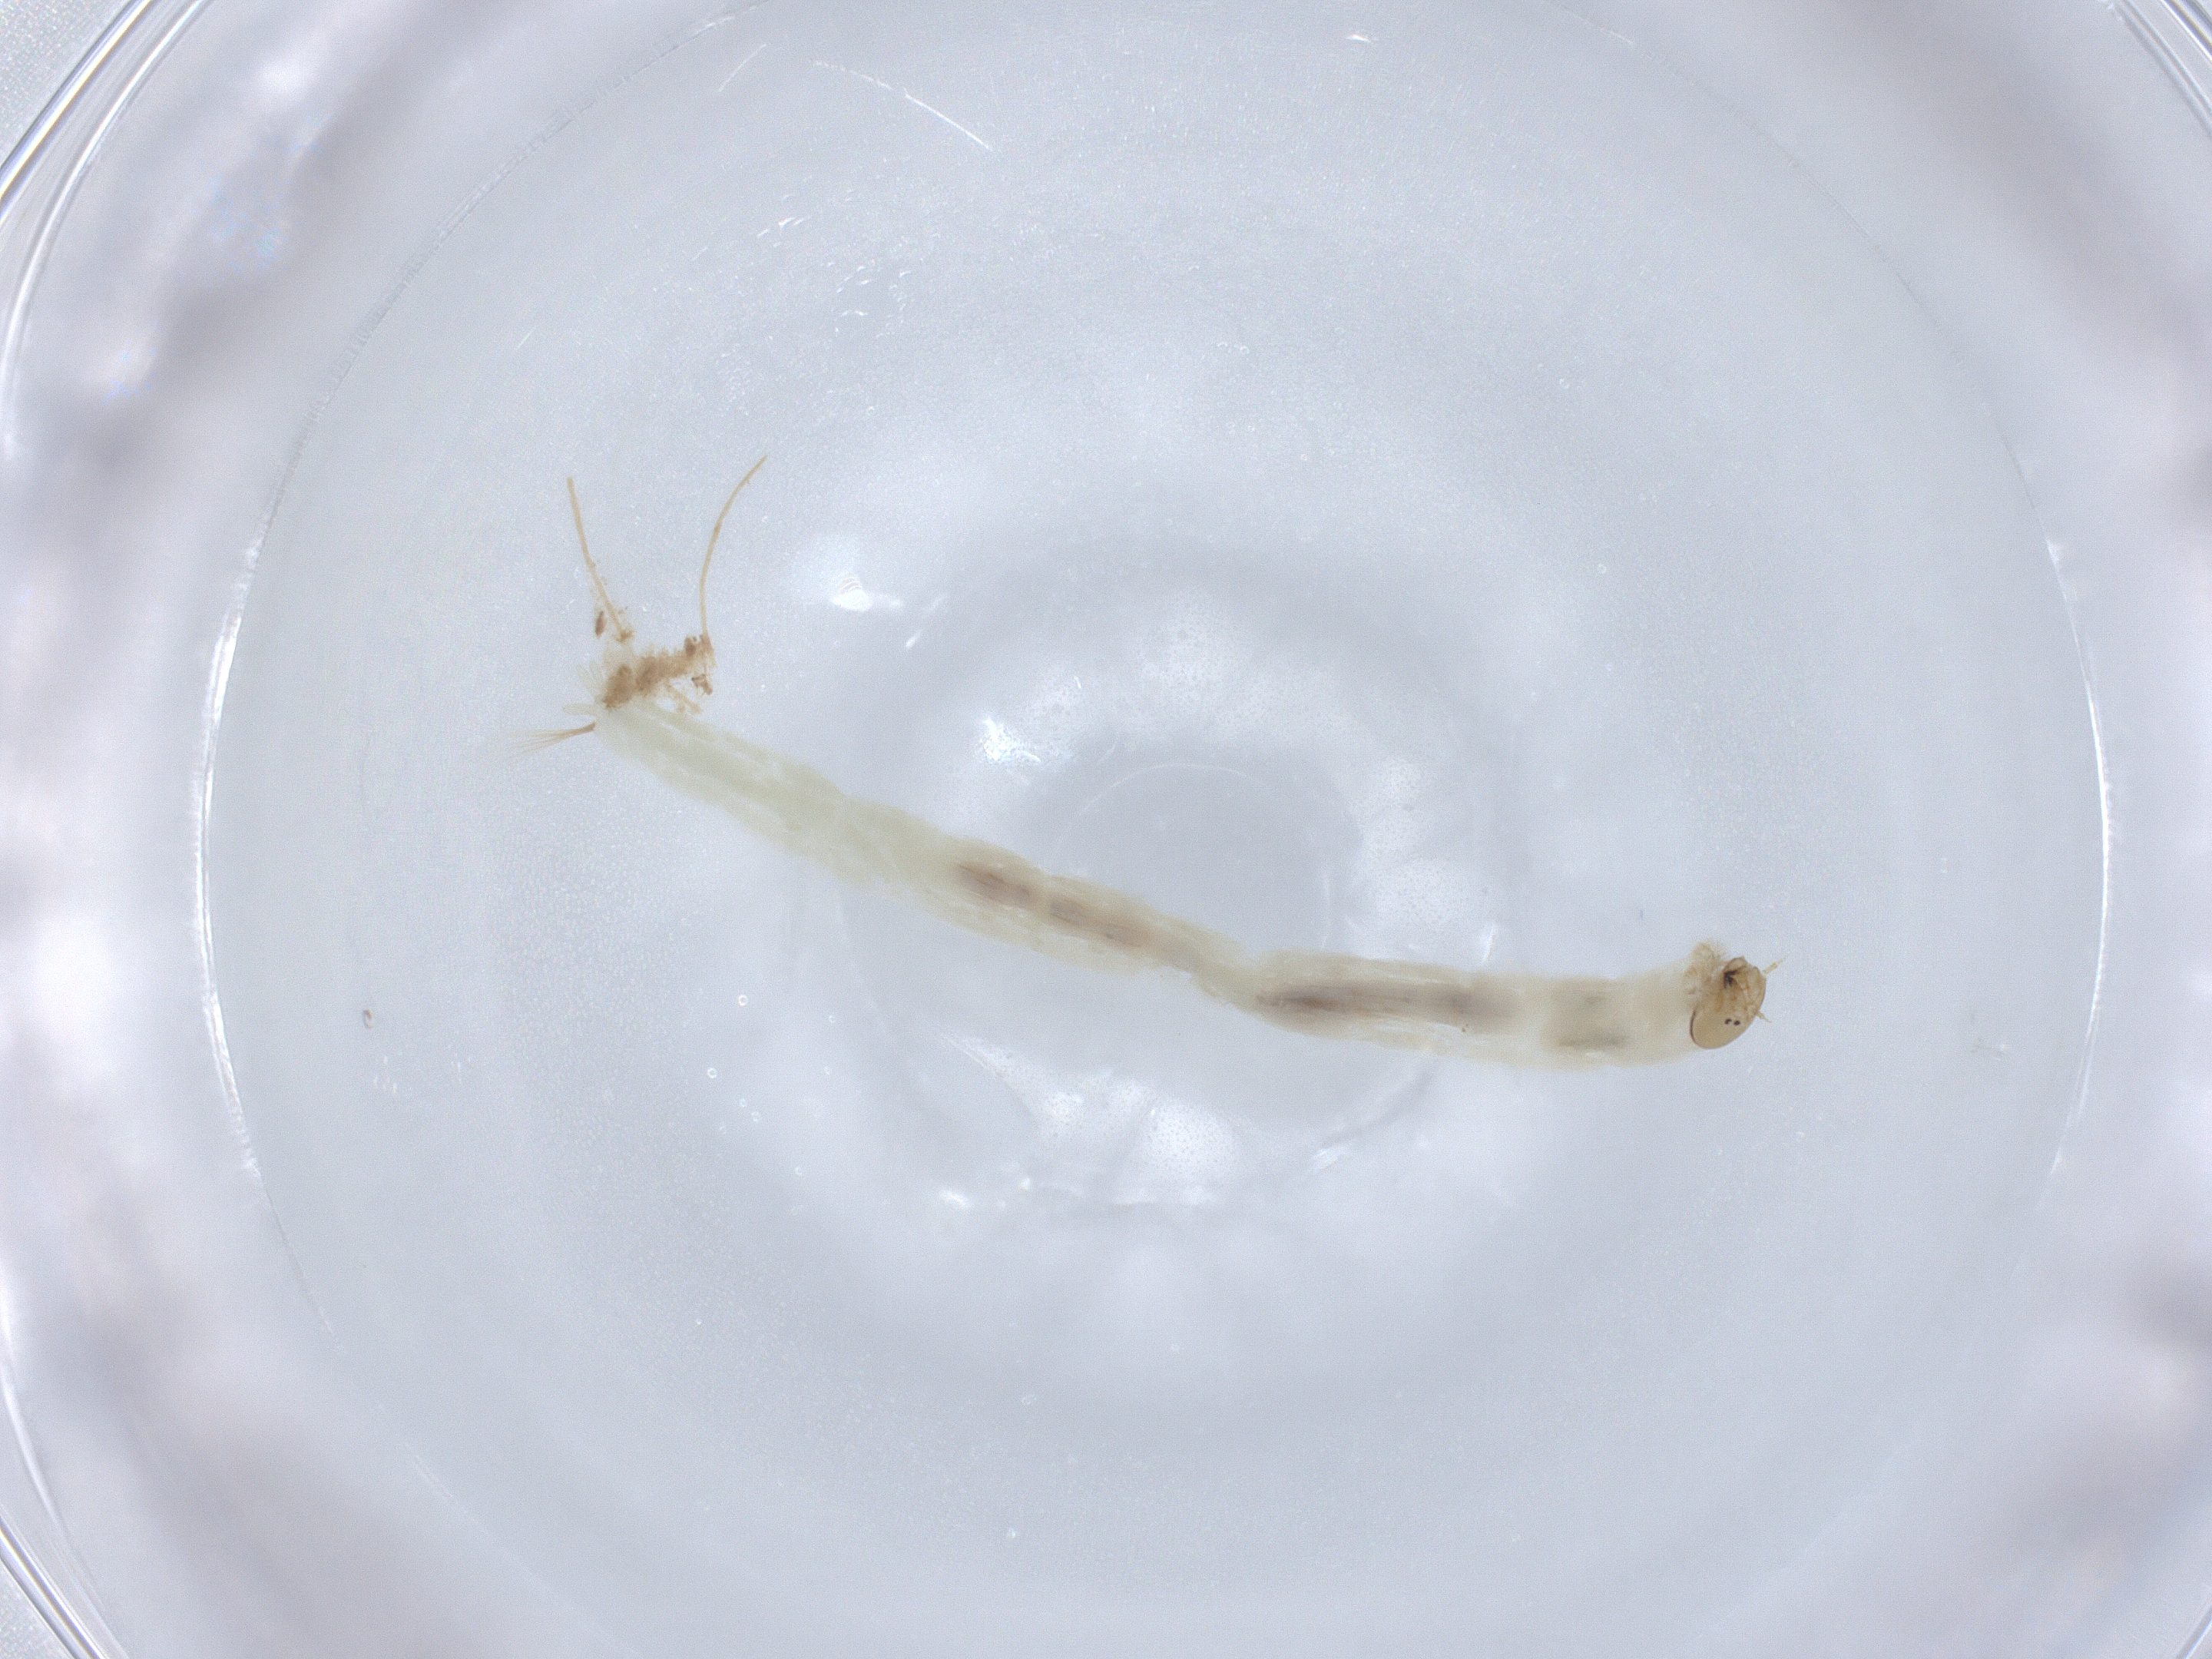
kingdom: Animalia
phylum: Arthropoda
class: Insecta
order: Diptera
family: Chironomidae
